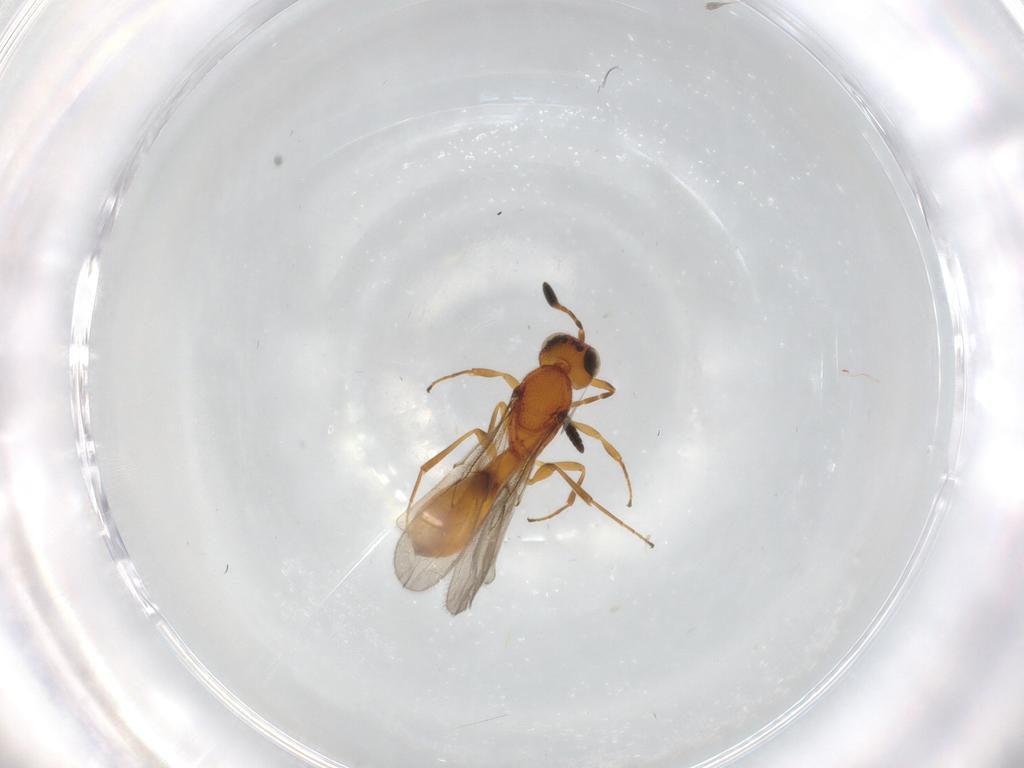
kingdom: Animalia
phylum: Arthropoda
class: Insecta
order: Hymenoptera
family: Scelionidae
